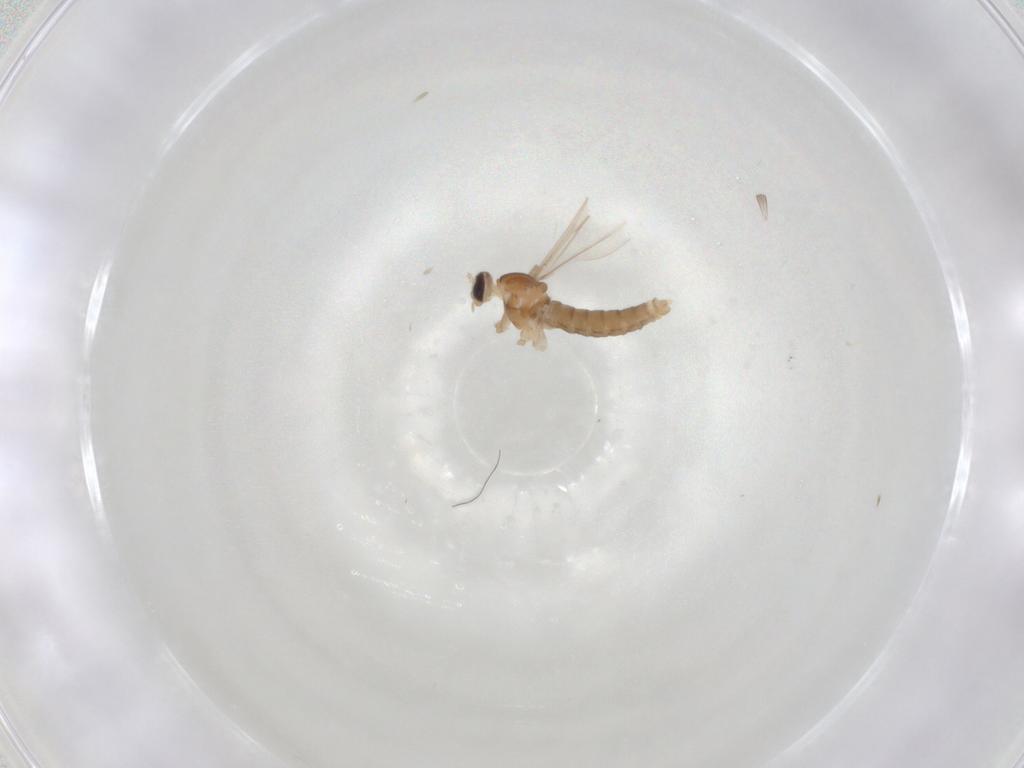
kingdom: Animalia
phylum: Arthropoda
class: Insecta
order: Diptera
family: Cecidomyiidae
